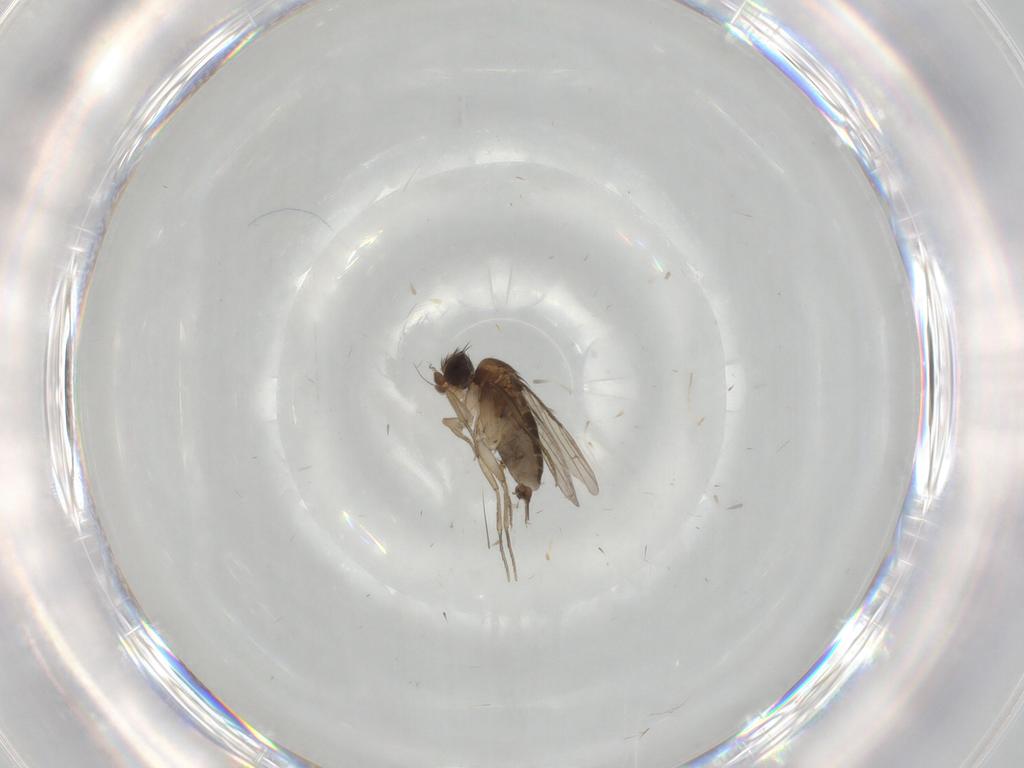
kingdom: Animalia
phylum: Arthropoda
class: Insecta
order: Diptera
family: Phoridae
